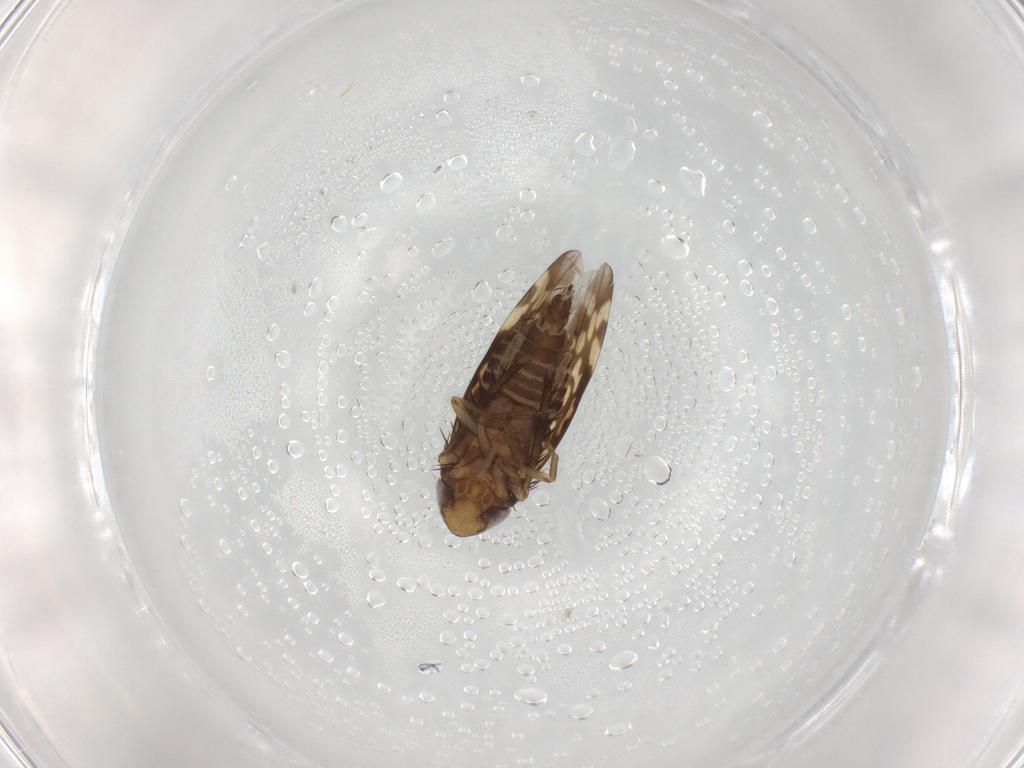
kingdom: Animalia
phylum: Arthropoda
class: Insecta
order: Hemiptera
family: Cicadellidae
